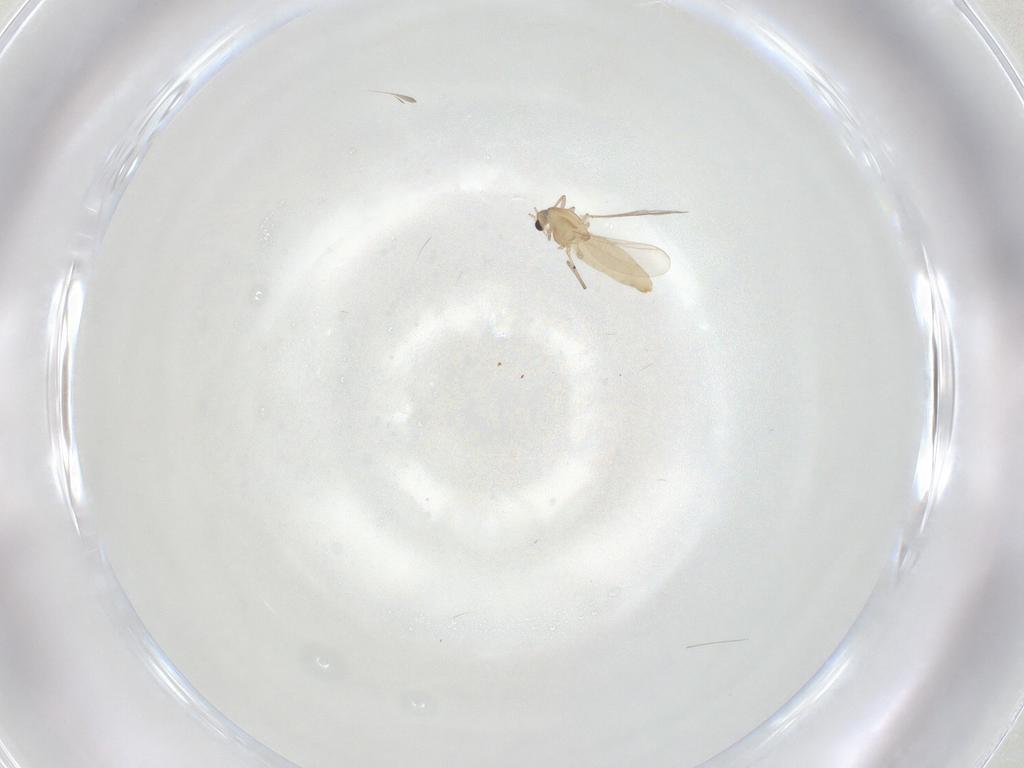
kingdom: Animalia
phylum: Arthropoda
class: Insecta
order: Diptera
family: Chironomidae
